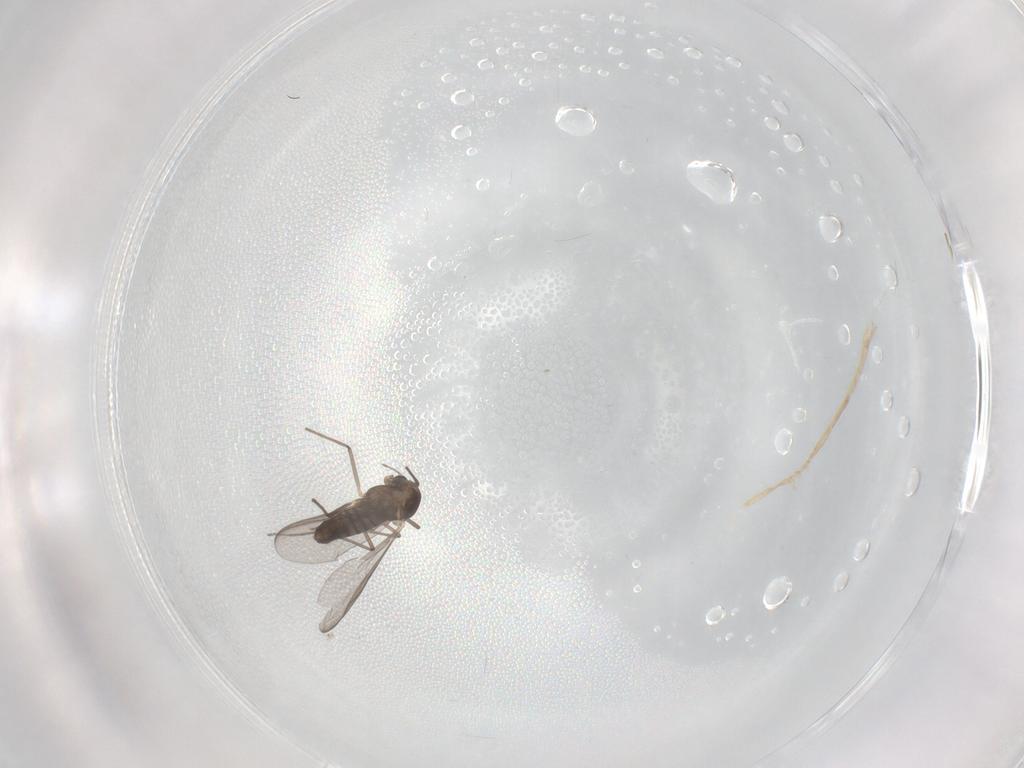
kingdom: Animalia
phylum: Arthropoda
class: Insecta
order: Diptera
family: Chironomidae
